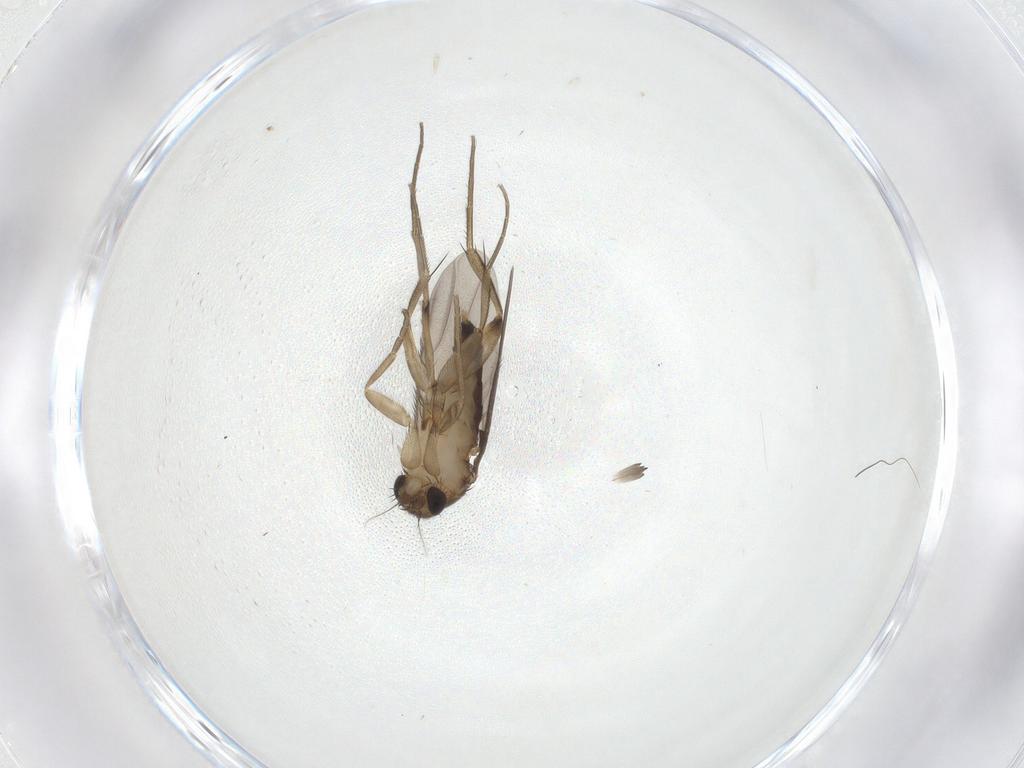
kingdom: Animalia
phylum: Arthropoda
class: Insecta
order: Diptera
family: Phoridae
